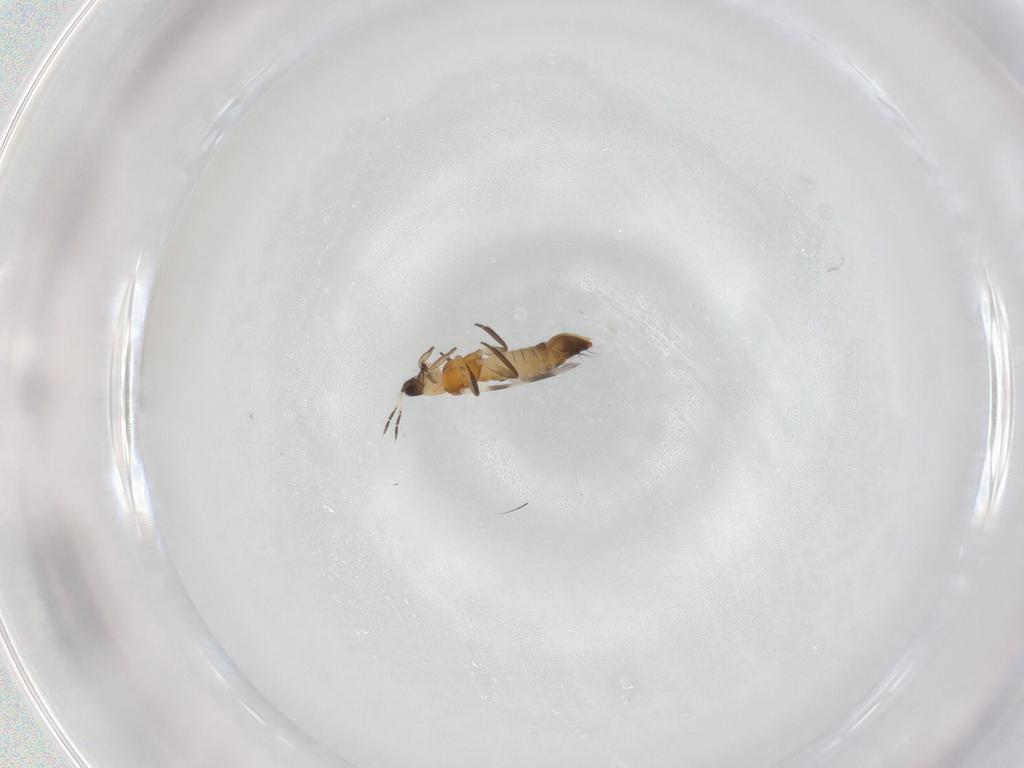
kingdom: Animalia
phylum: Arthropoda
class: Insecta
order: Thysanoptera
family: Aeolothripidae
